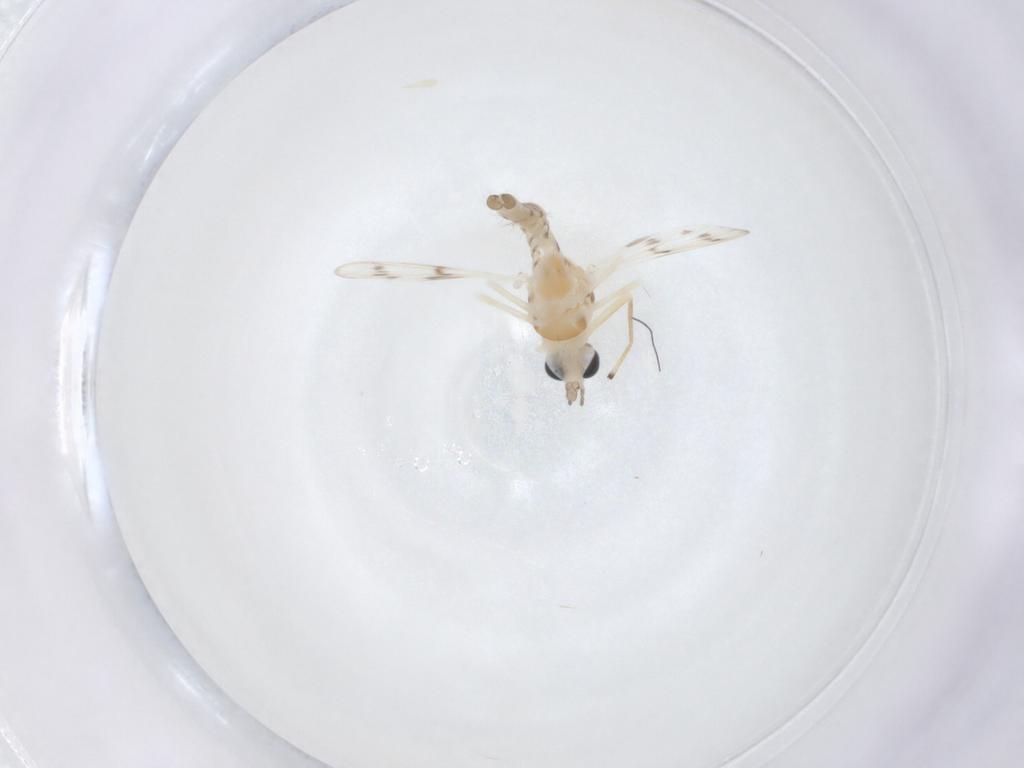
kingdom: Animalia
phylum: Arthropoda
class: Insecta
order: Diptera
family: Chironomidae
